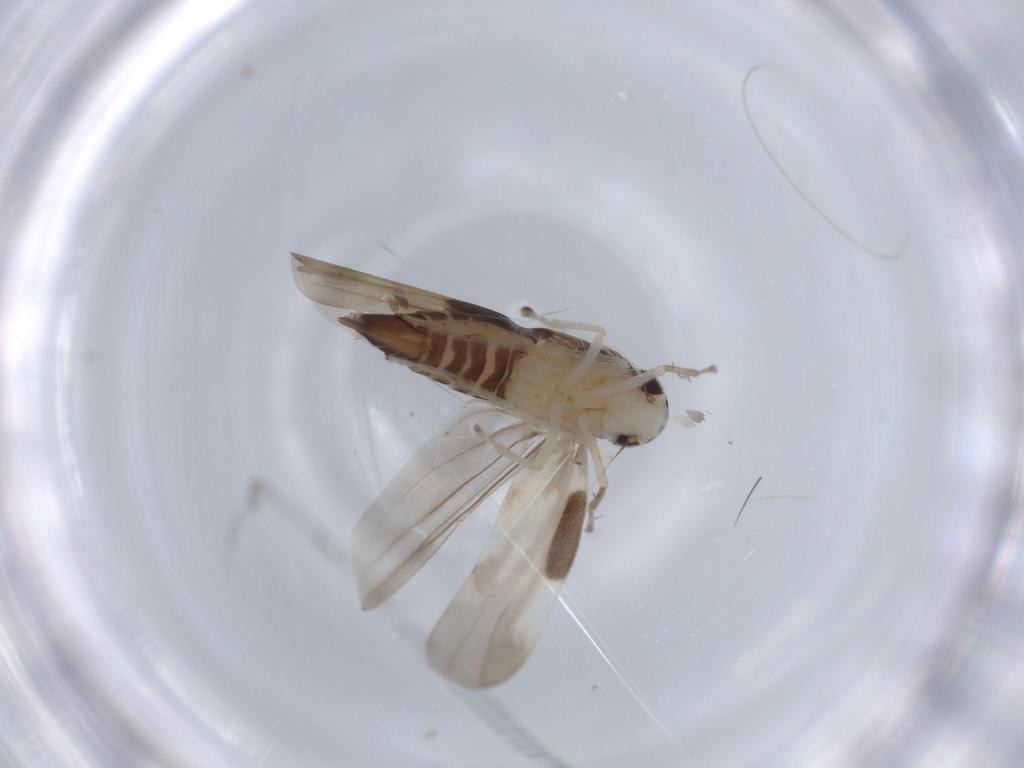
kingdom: Animalia
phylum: Arthropoda
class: Insecta
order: Hemiptera
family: Cicadellidae
